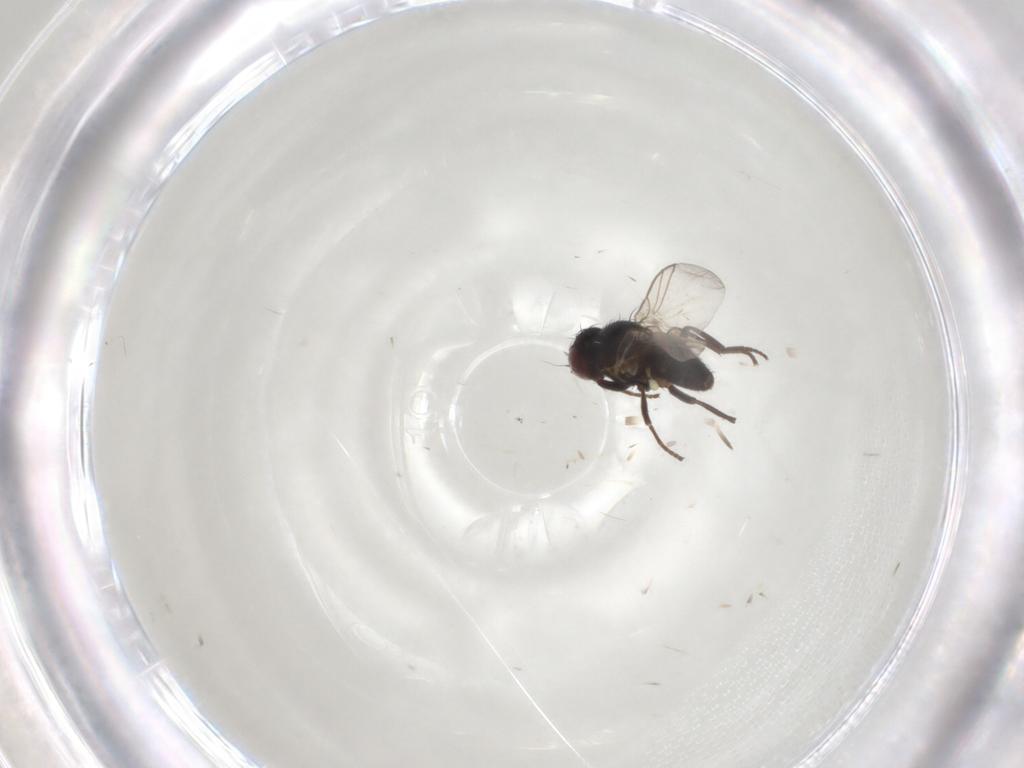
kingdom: Animalia
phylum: Arthropoda
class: Insecta
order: Diptera
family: Agromyzidae
